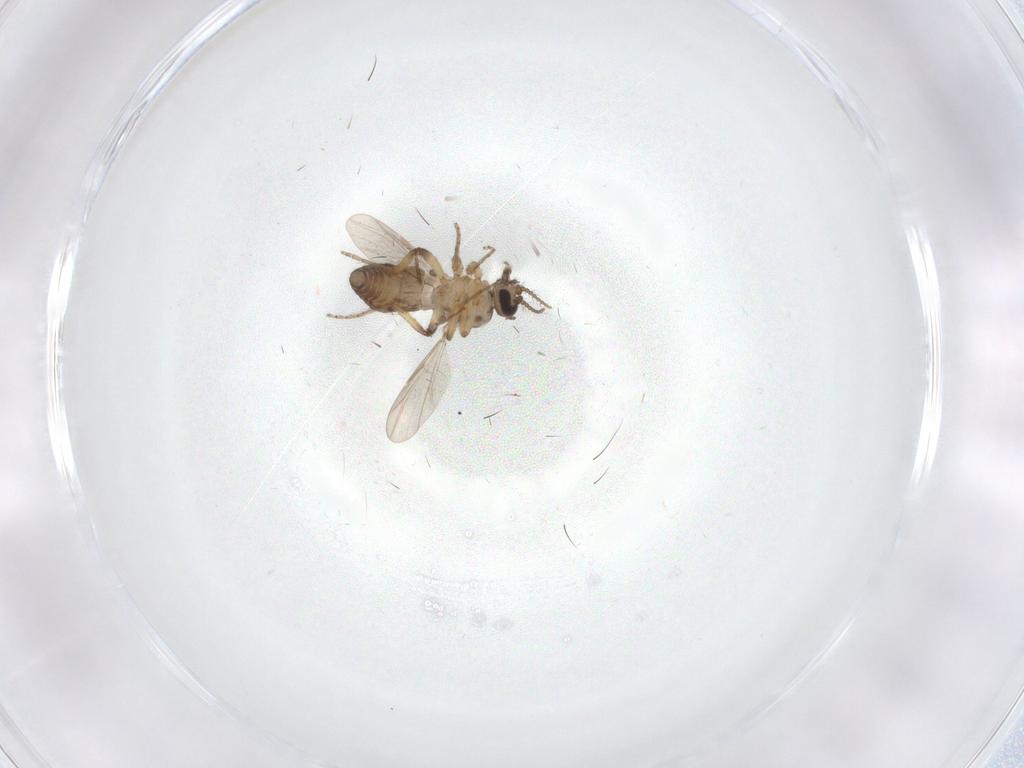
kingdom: Animalia
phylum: Arthropoda
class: Insecta
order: Diptera
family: Ceratopogonidae
